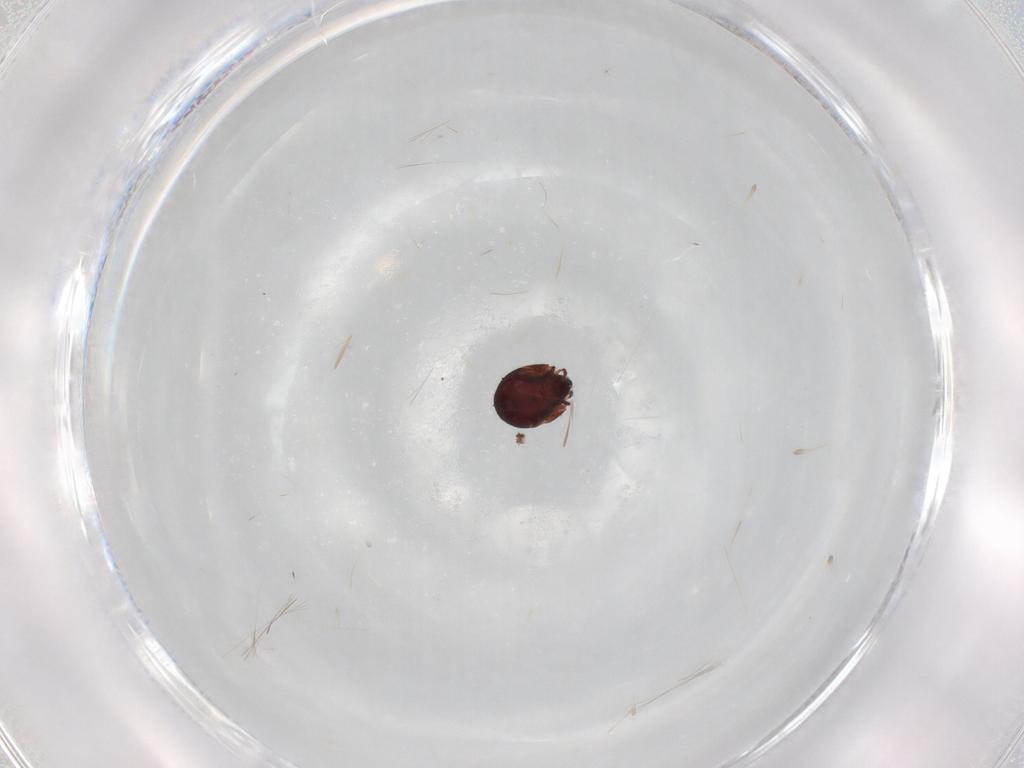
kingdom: Animalia
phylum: Arthropoda
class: Arachnida
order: Sarcoptiformes
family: Humerobatidae
